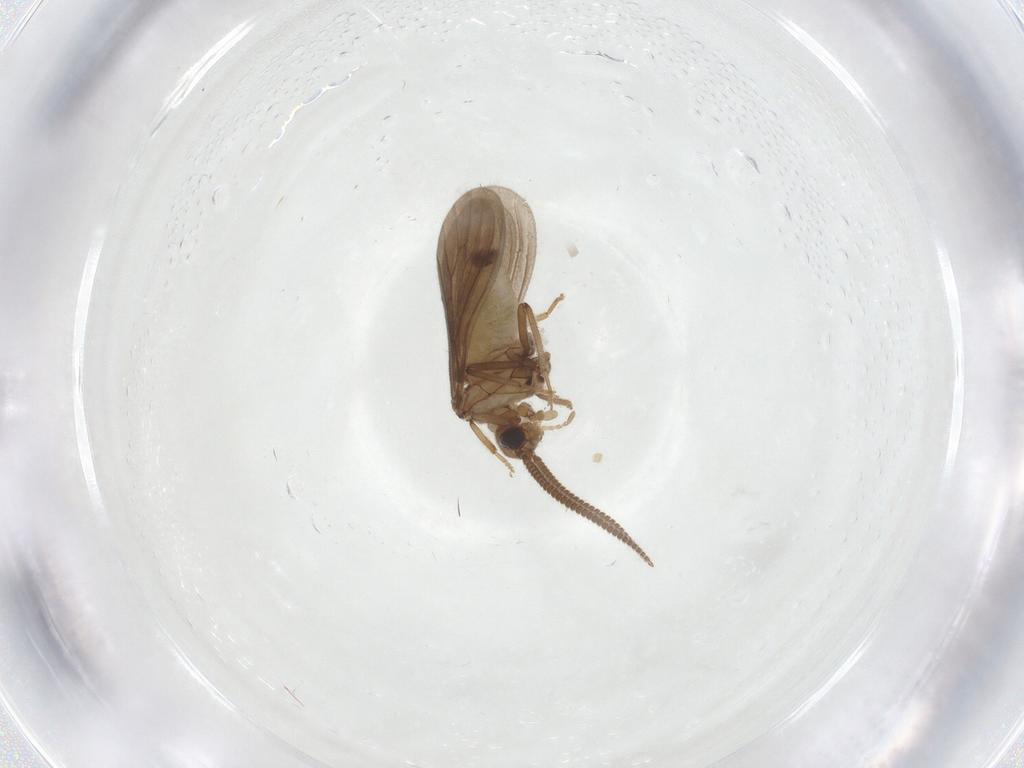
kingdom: Animalia
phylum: Arthropoda
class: Insecta
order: Neuroptera
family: Coniopterygidae
